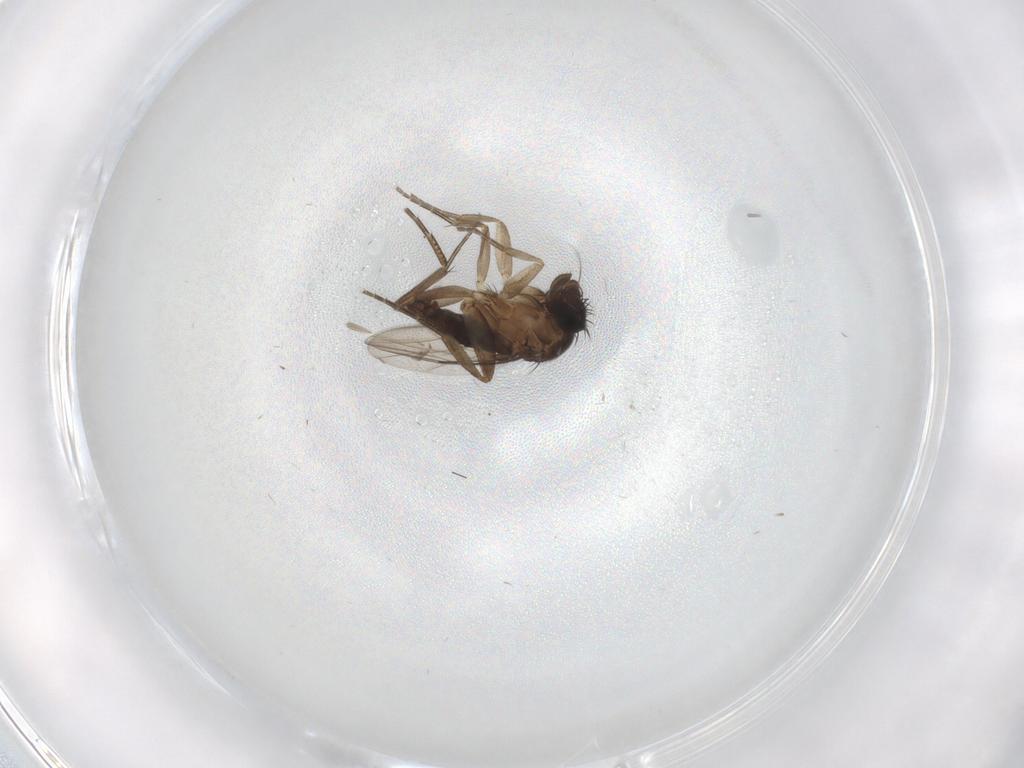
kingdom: Animalia
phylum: Arthropoda
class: Insecta
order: Diptera
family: Phoridae
